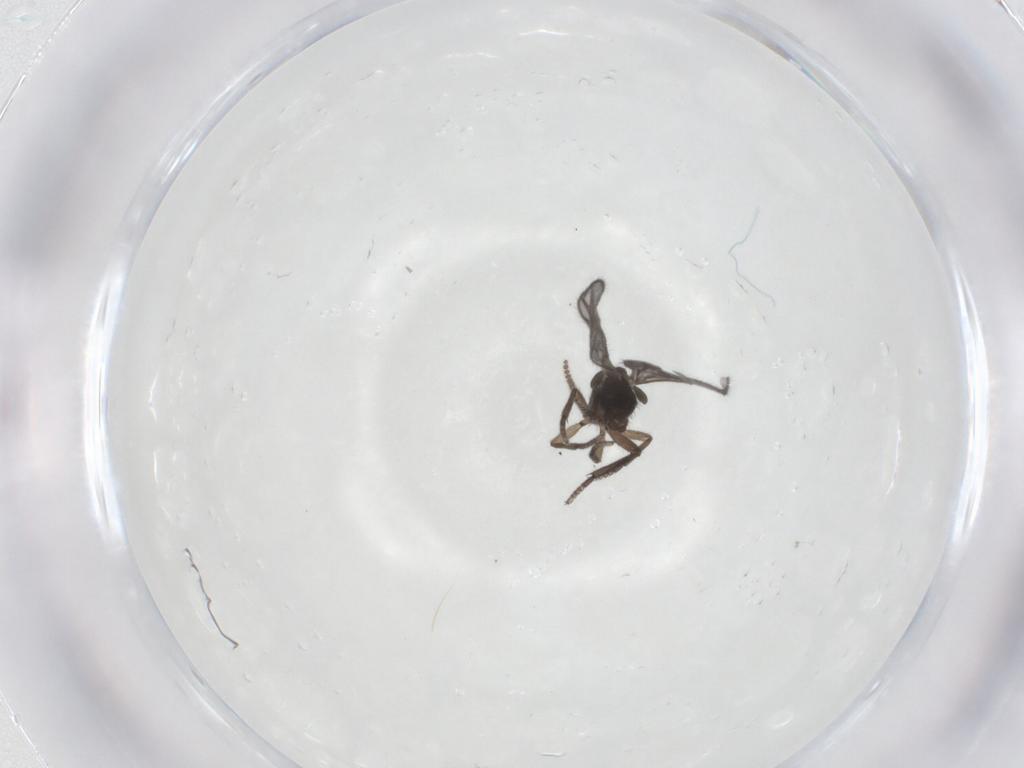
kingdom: Animalia
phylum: Arthropoda
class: Insecta
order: Diptera
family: Sciaridae
